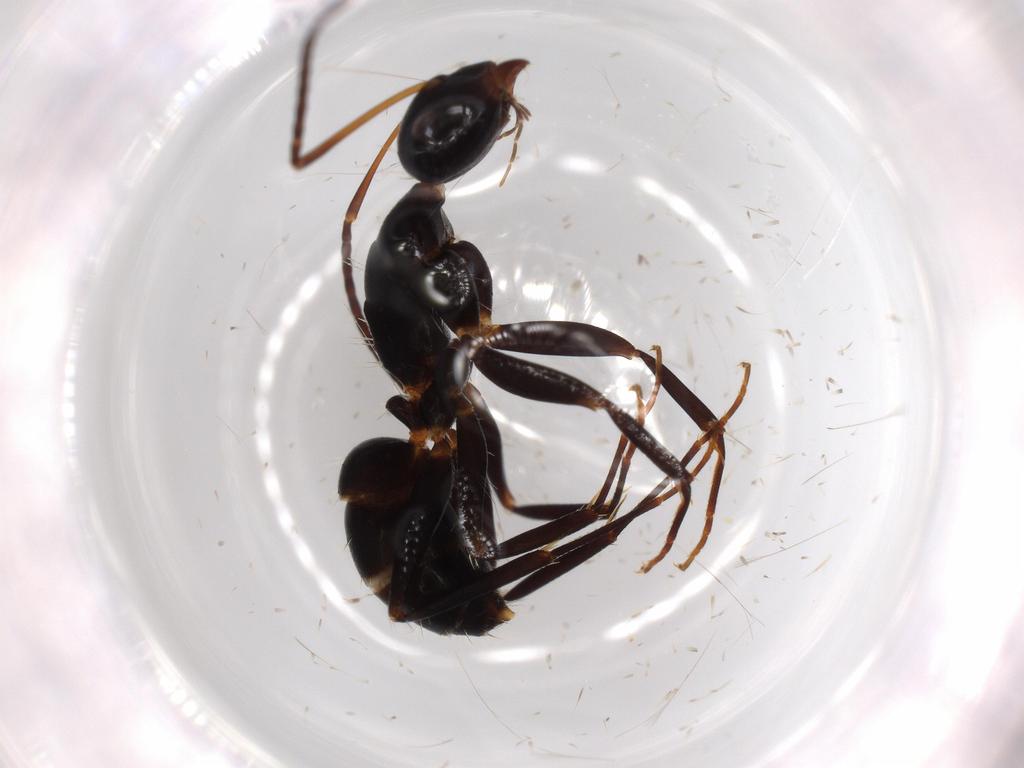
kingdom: Animalia
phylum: Arthropoda
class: Insecta
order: Hymenoptera
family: Formicidae
